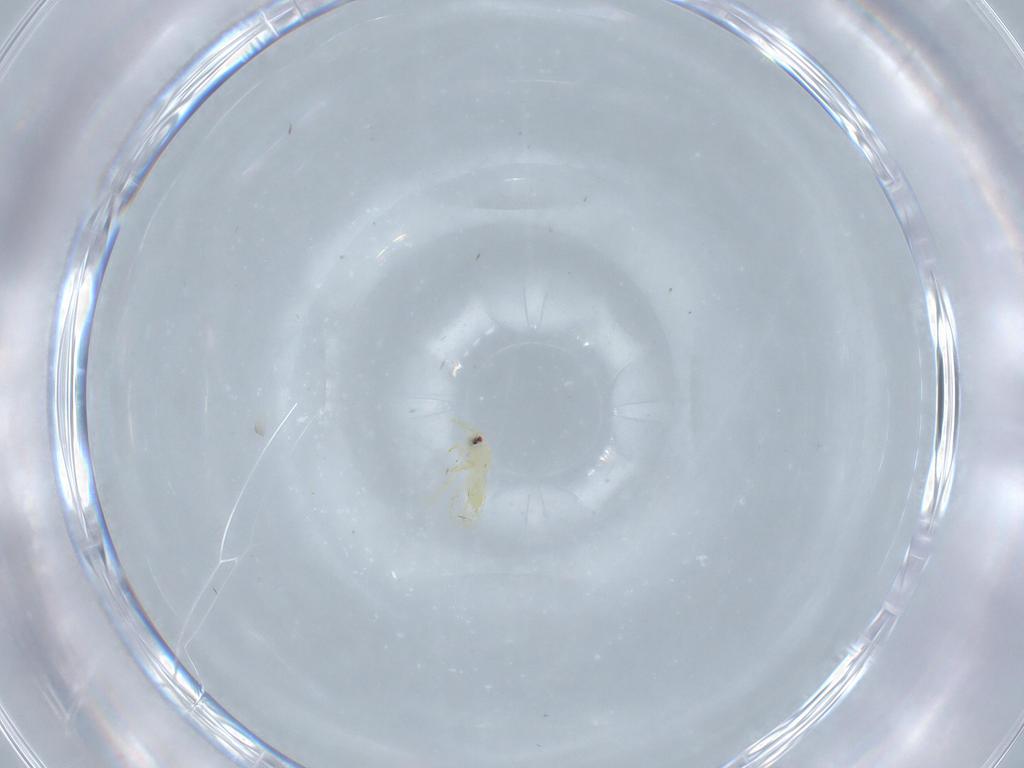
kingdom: Animalia
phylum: Arthropoda
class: Insecta
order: Hemiptera
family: Aleyrodidae
